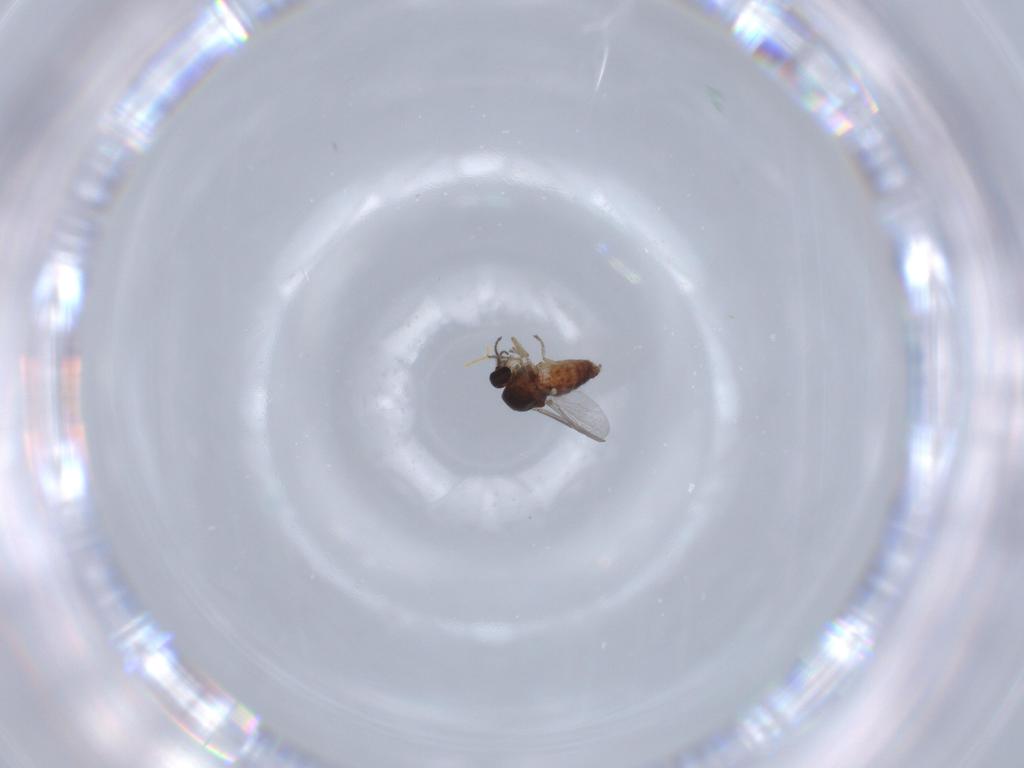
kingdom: Animalia
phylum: Arthropoda
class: Insecta
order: Diptera
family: Ceratopogonidae
